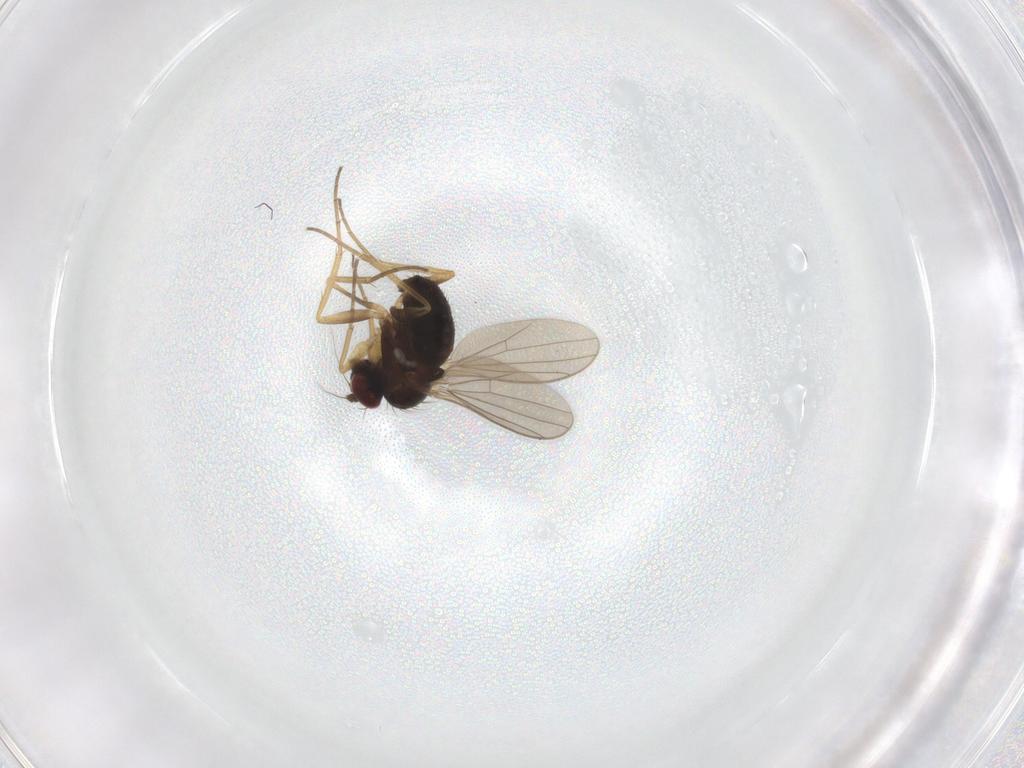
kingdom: Animalia
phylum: Arthropoda
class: Insecta
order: Diptera
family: Dolichopodidae
